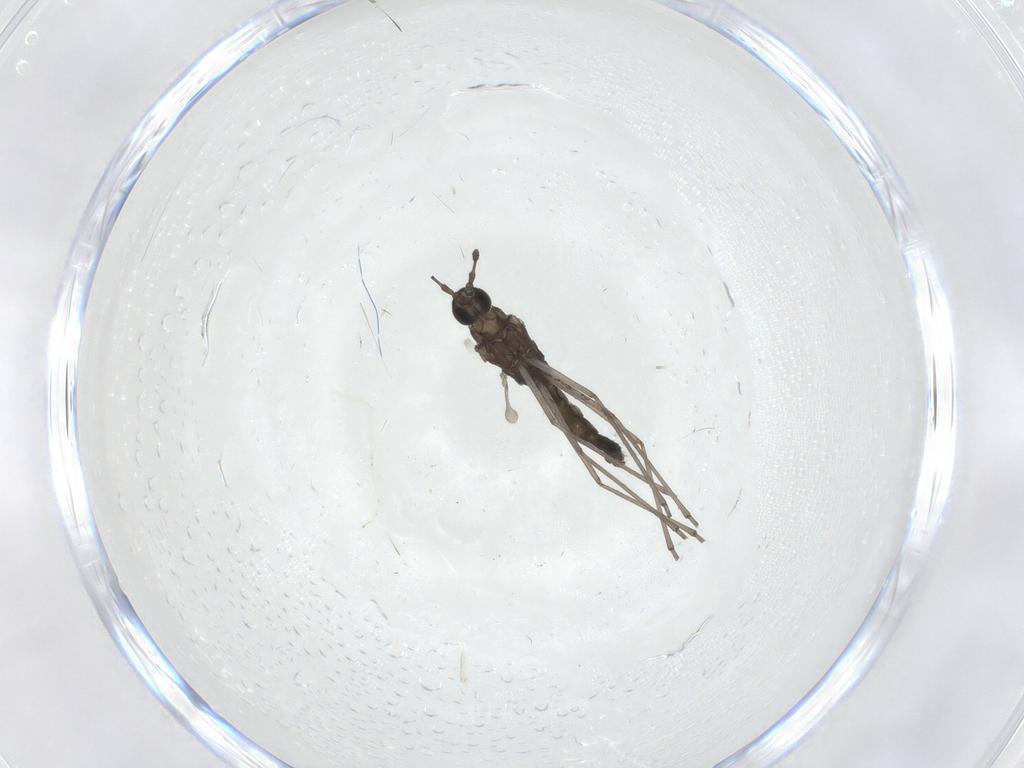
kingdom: Animalia
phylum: Arthropoda
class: Insecta
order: Diptera
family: Cecidomyiidae
